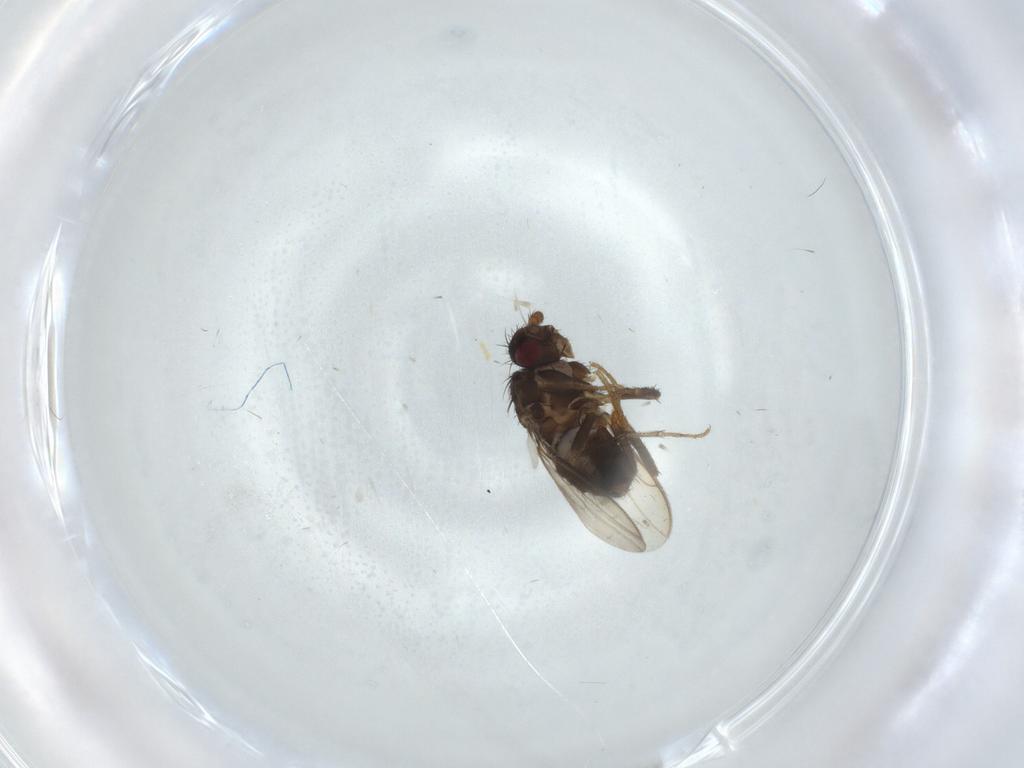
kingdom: Animalia
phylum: Arthropoda
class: Insecta
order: Diptera
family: Sphaeroceridae
